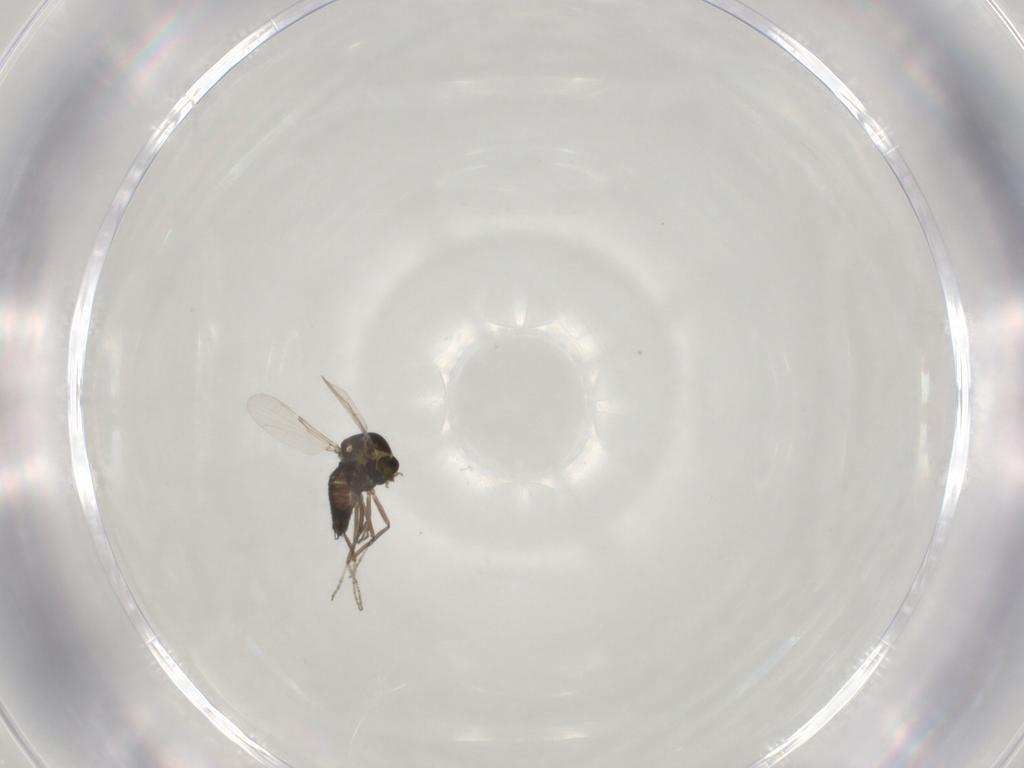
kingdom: Animalia
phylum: Arthropoda
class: Insecta
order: Diptera
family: Ceratopogonidae
